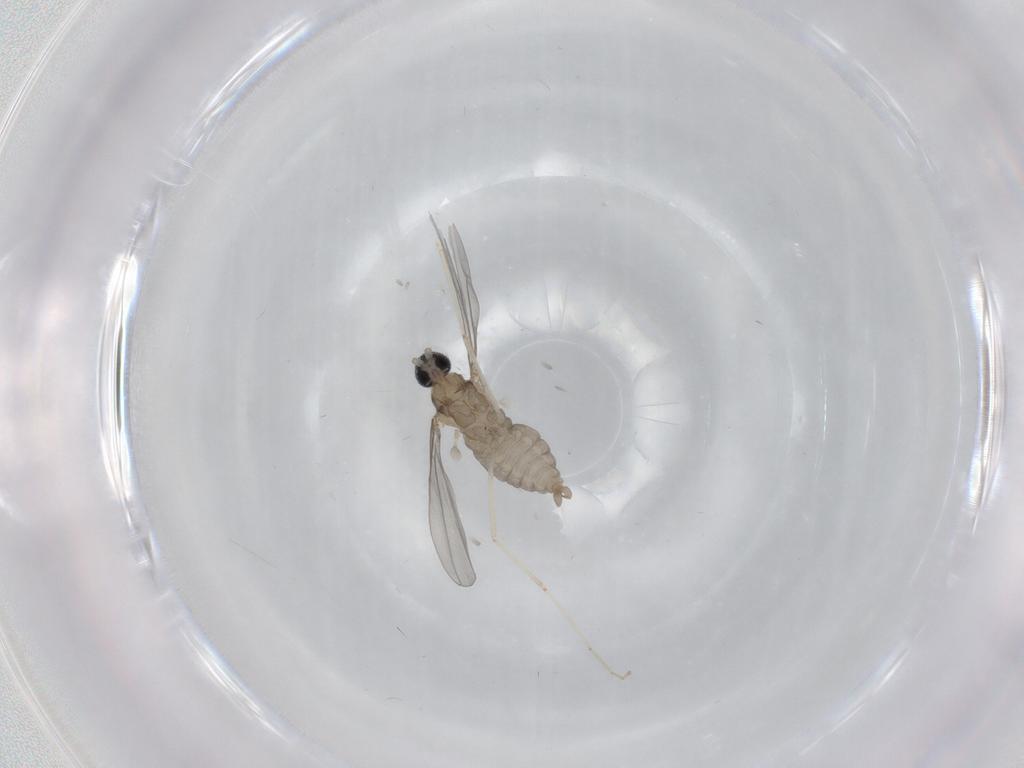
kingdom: Animalia
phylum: Arthropoda
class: Insecta
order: Diptera
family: Cecidomyiidae
